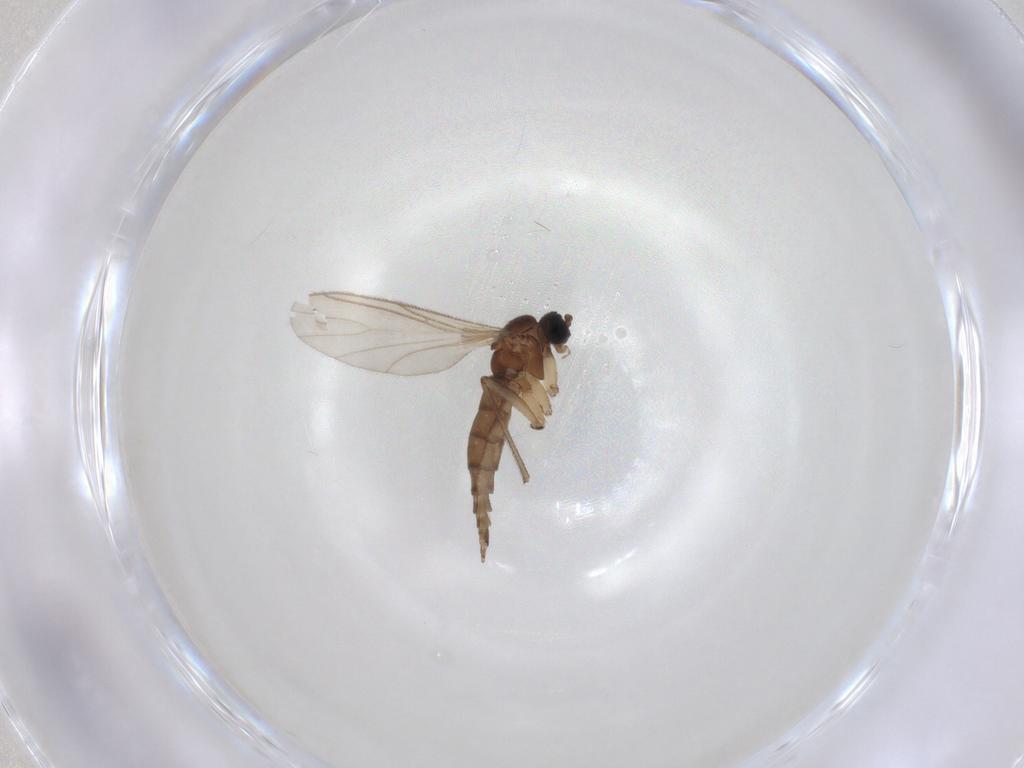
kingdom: Animalia
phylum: Arthropoda
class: Insecta
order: Diptera
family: Sciaridae
